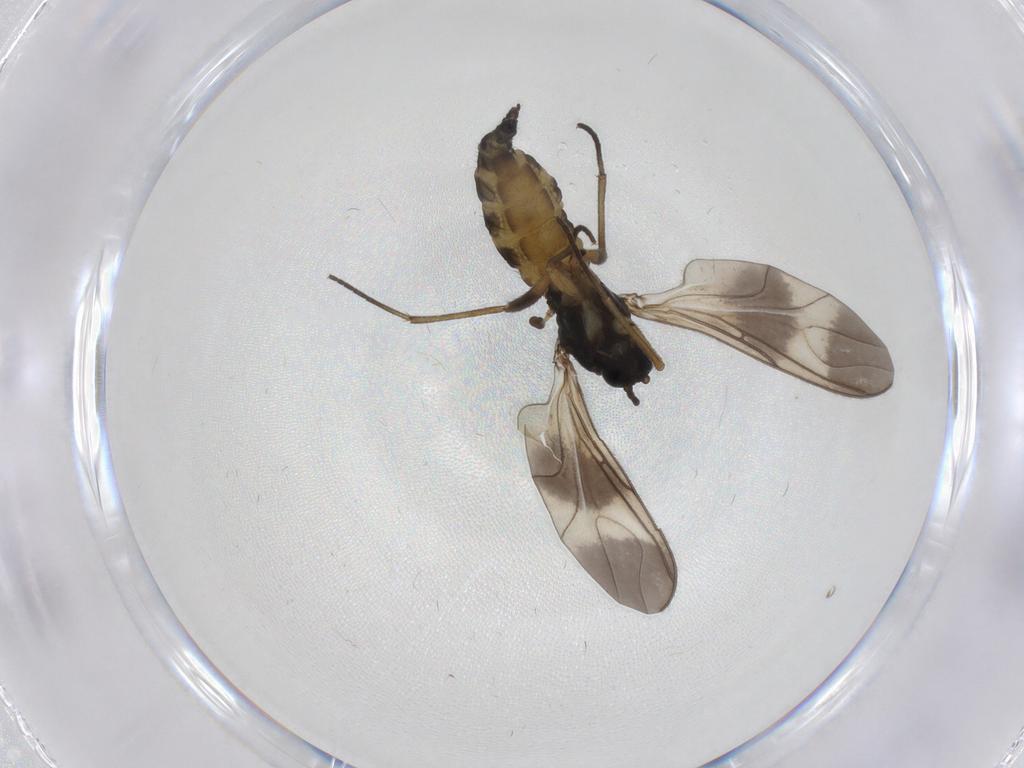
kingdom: Animalia
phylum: Arthropoda
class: Insecta
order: Diptera
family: Sciaridae
